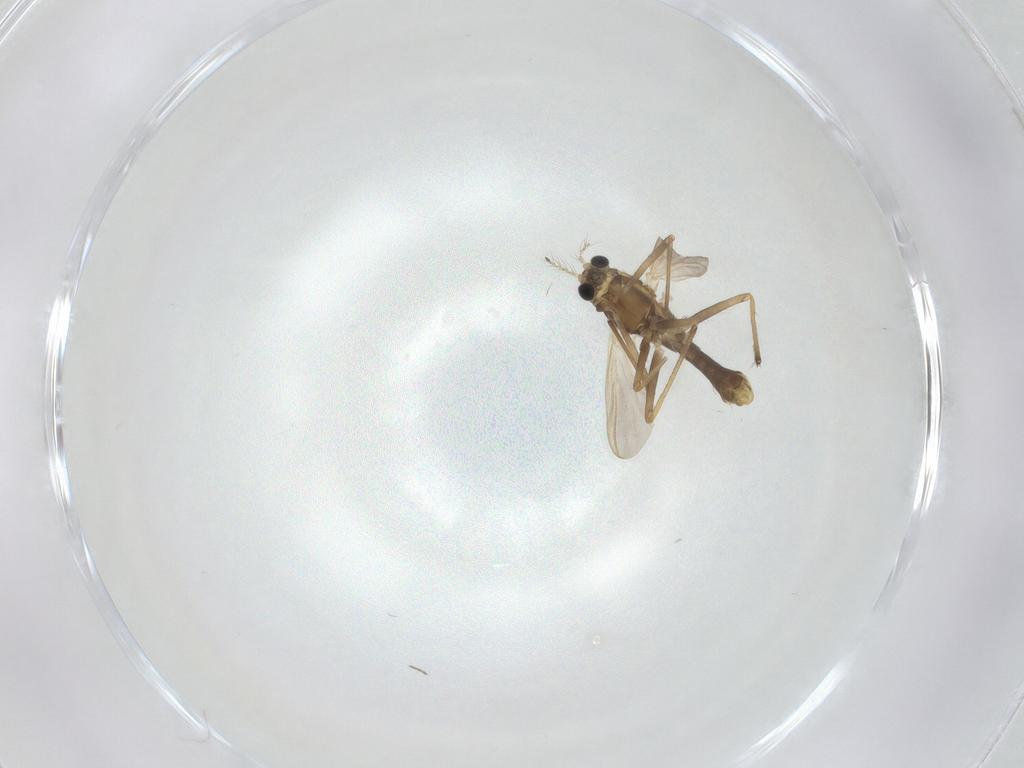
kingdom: Animalia
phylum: Arthropoda
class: Insecta
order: Diptera
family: Chironomidae
